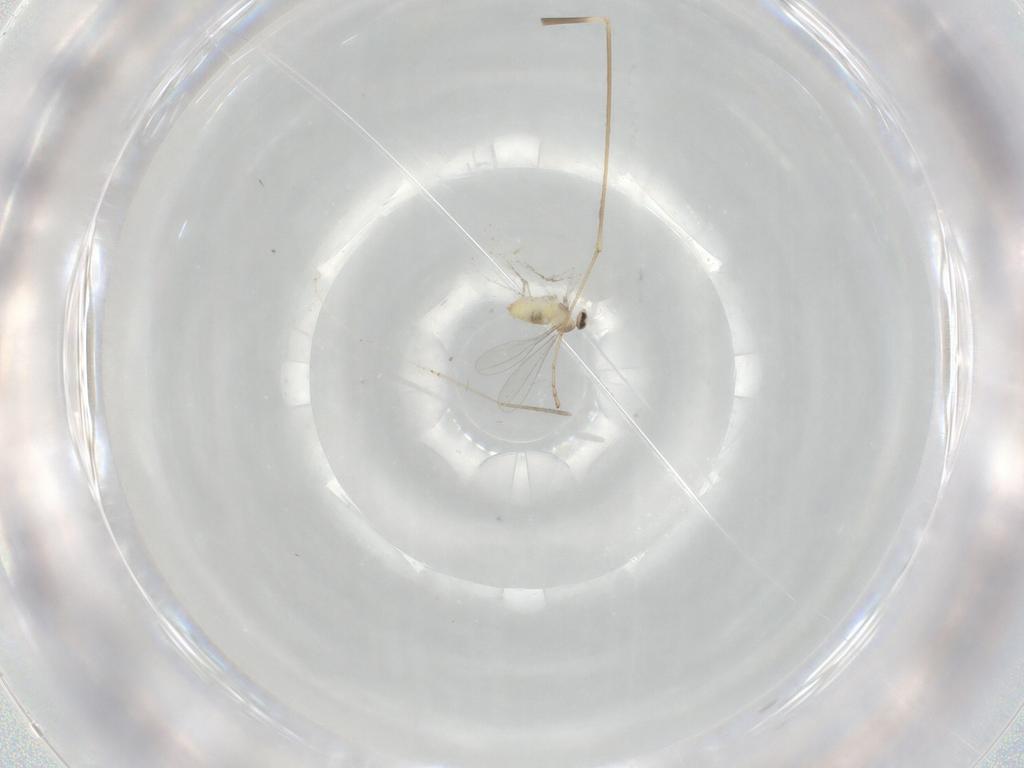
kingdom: Animalia
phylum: Arthropoda
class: Insecta
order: Diptera
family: Cecidomyiidae
